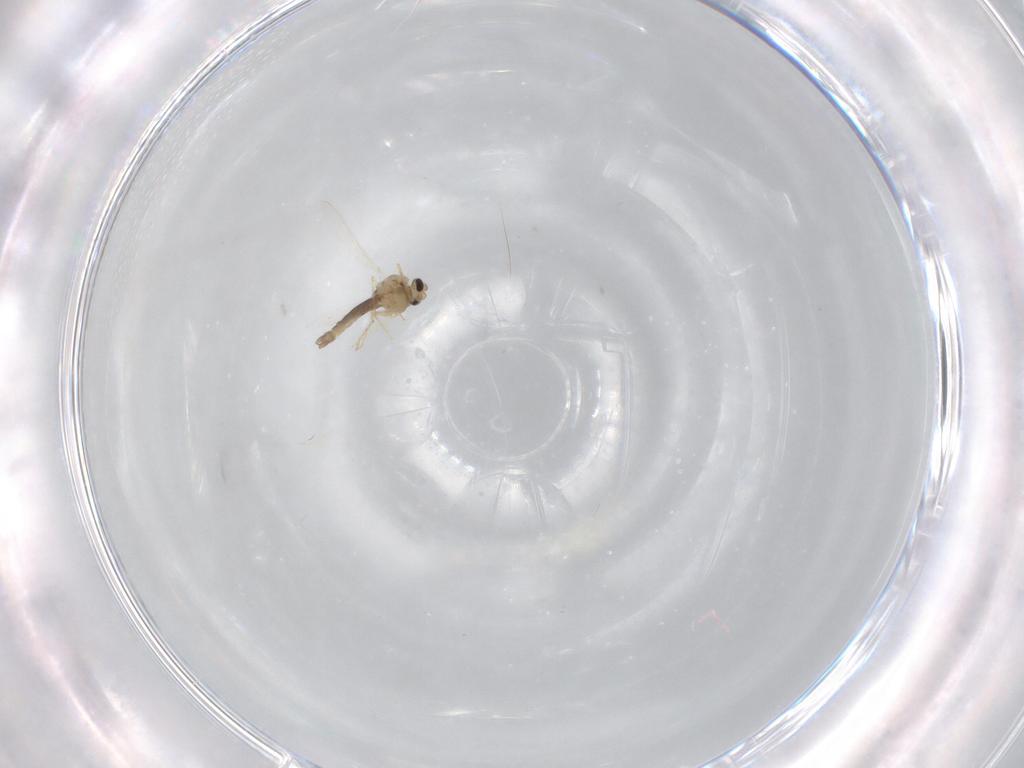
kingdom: Animalia
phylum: Arthropoda
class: Insecta
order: Diptera
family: Chironomidae
